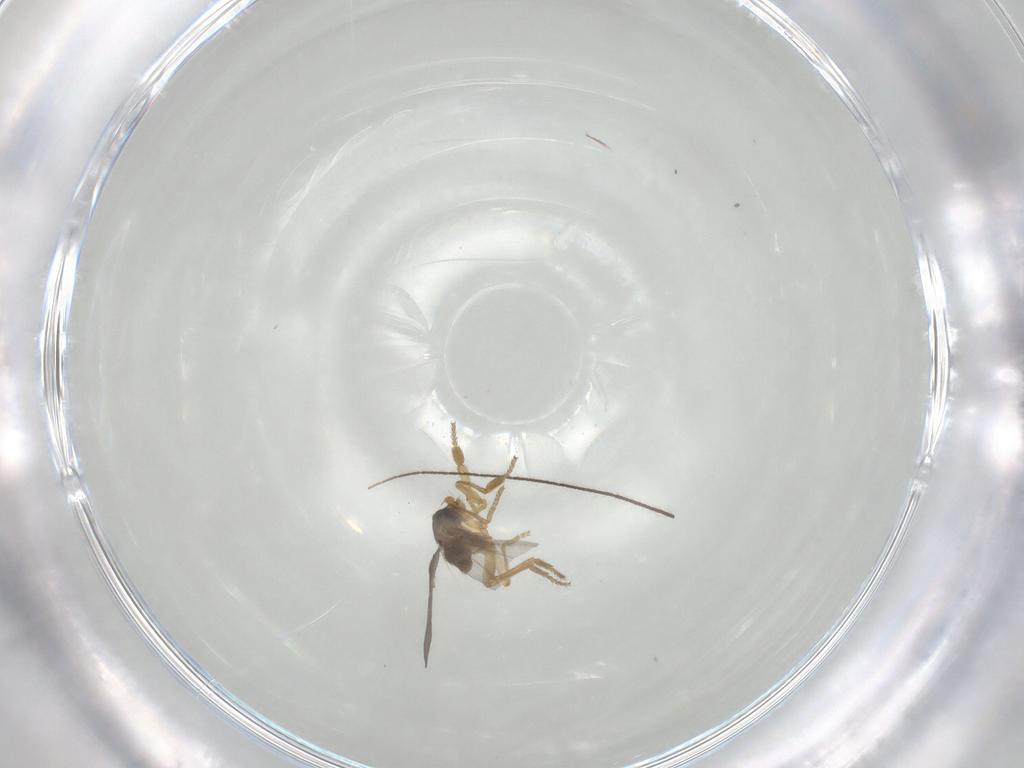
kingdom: Animalia
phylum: Arthropoda
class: Insecta
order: Diptera
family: Phoridae
